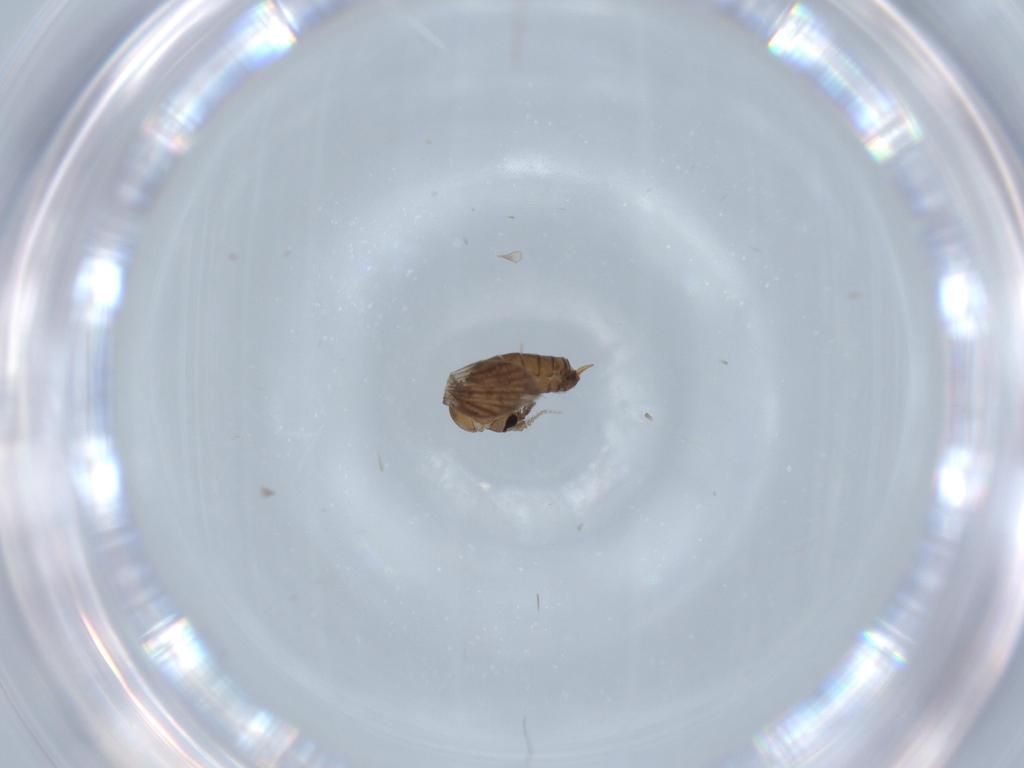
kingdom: Animalia
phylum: Arthropoda
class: Insecta
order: Diptera
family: Psychodidae
